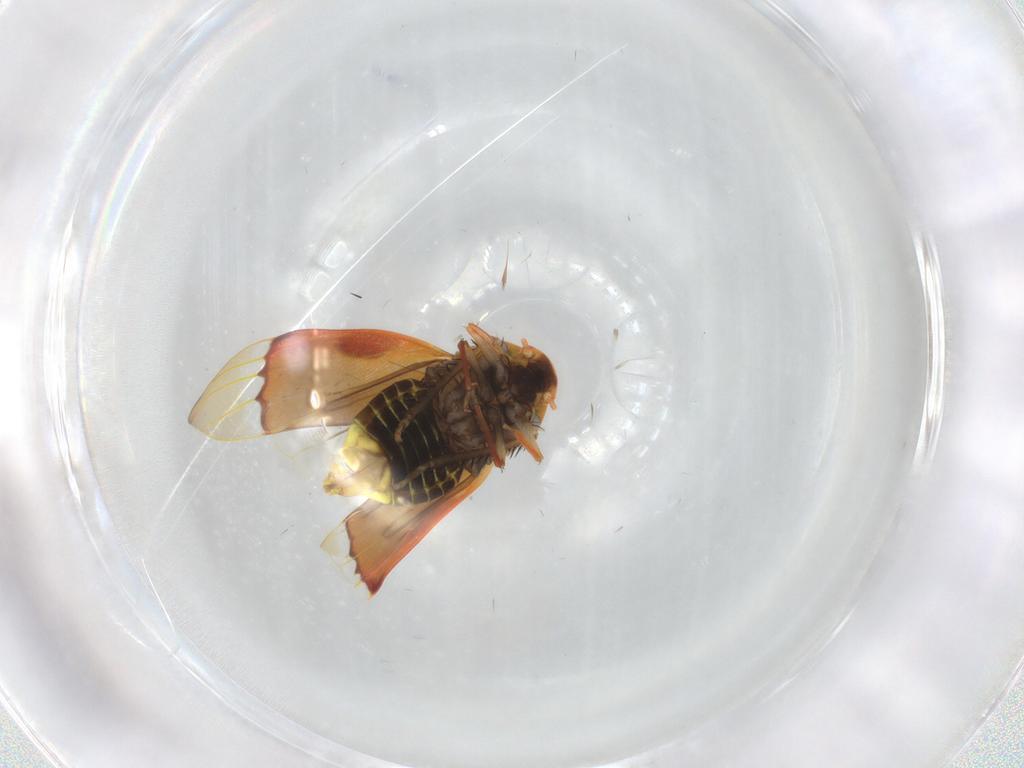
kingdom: Animalia
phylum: Arthropoda
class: Insecta
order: Hemiptera
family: Cicadellidae
